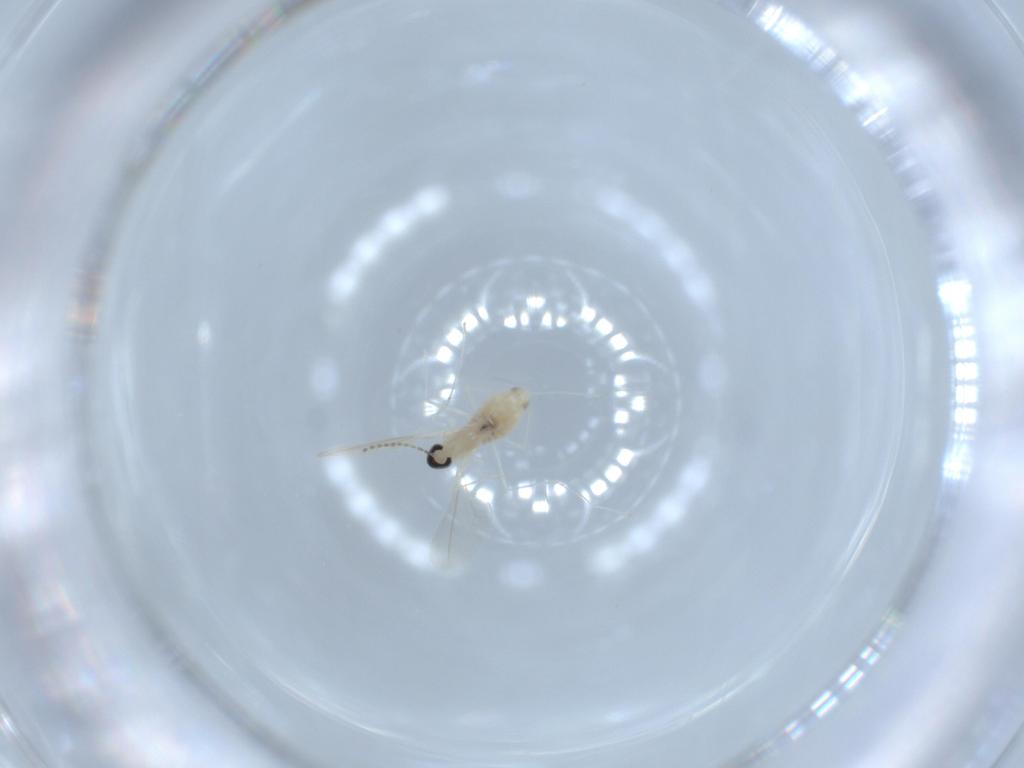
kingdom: Animalia
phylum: Arthropoda
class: Insecta
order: Diptera
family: Cecidomyiidae
